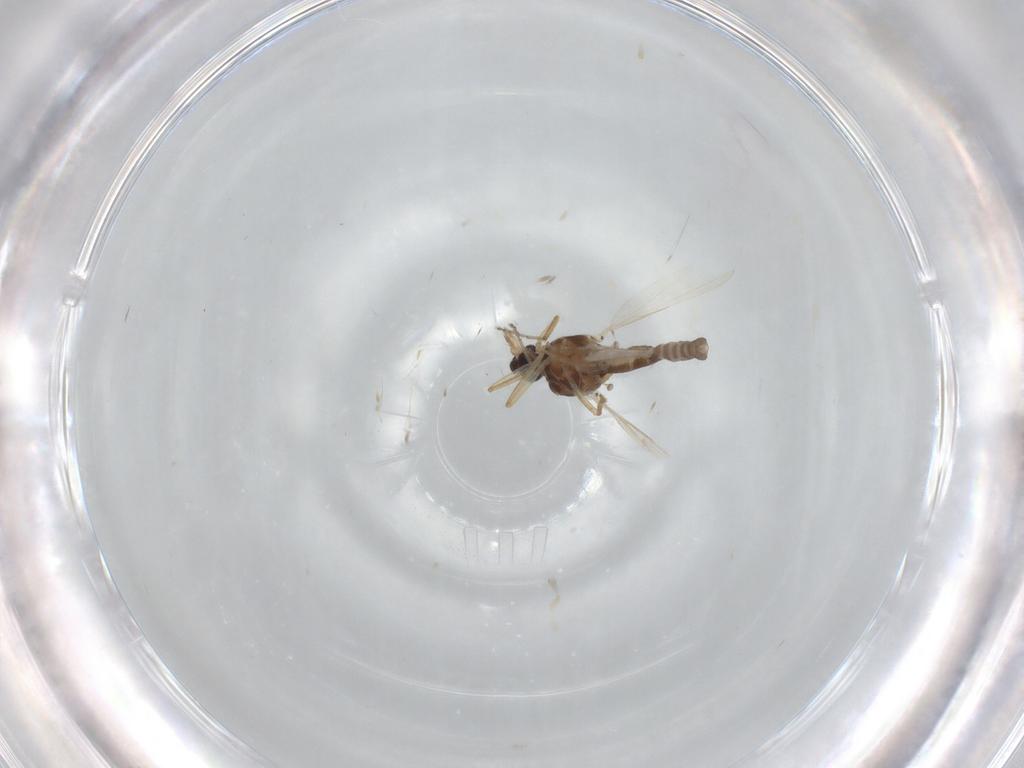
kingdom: Animalia
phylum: Arthropoda
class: Insecta
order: Diptera
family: Ceratopogonidae
